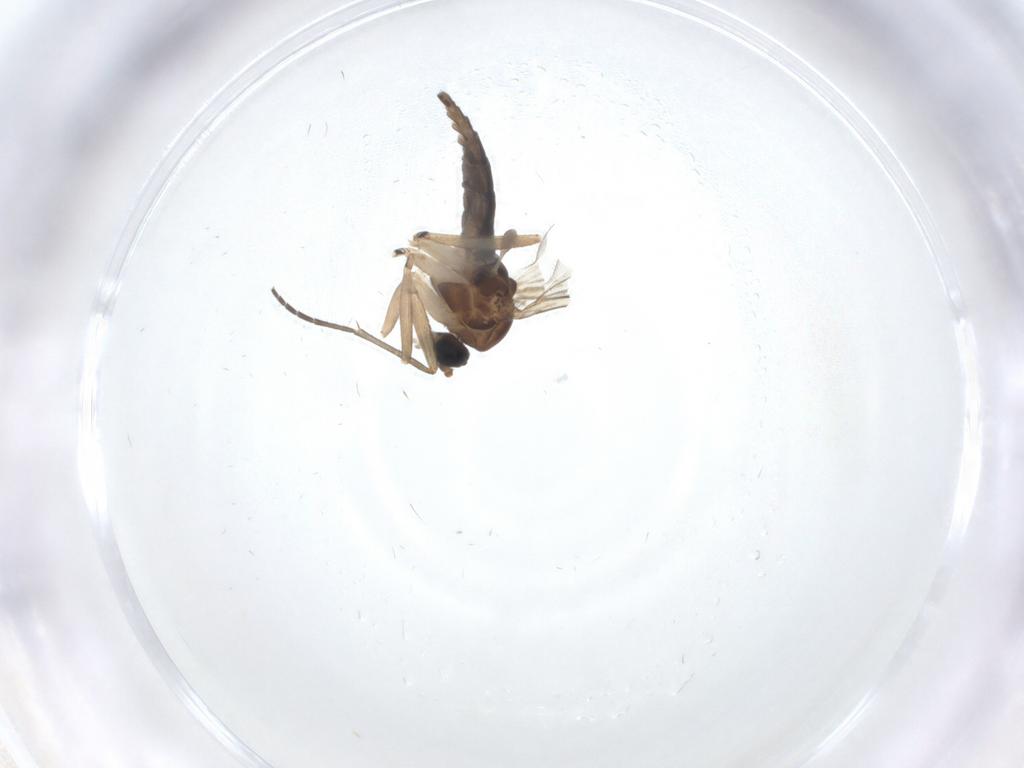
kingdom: Animalia
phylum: Arthropoda
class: Insecta
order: Diptera
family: Sciaridae
